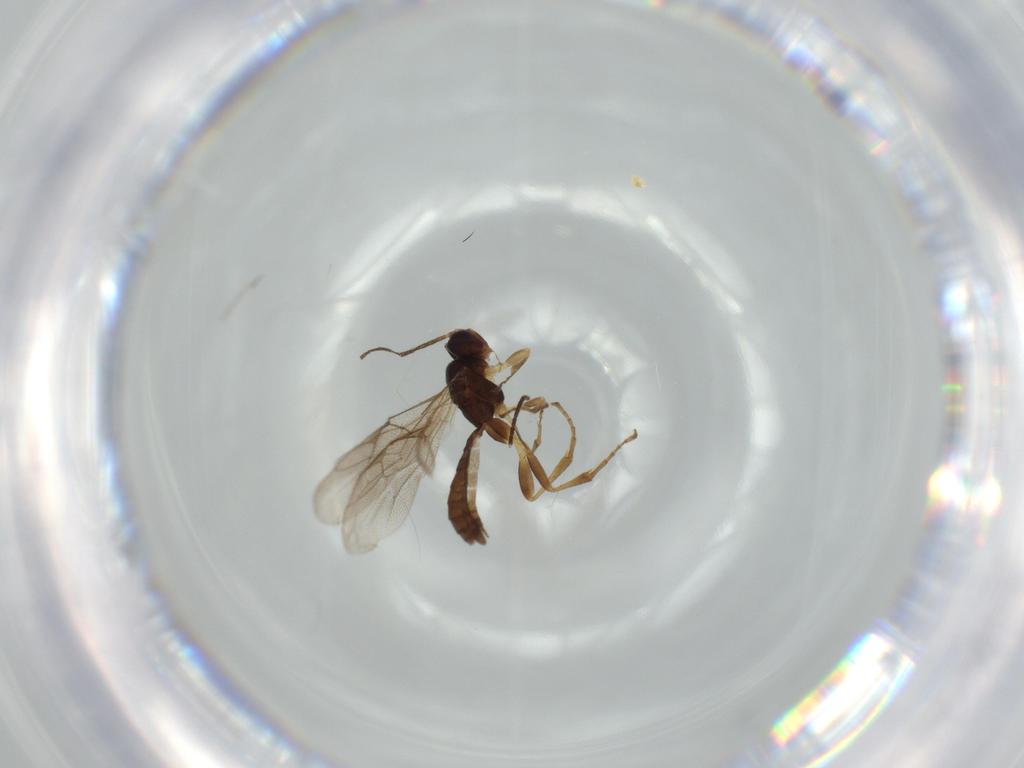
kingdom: Animalia
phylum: Arthropoda
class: Insecta
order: Hymenoptera
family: Ichneumonidae
